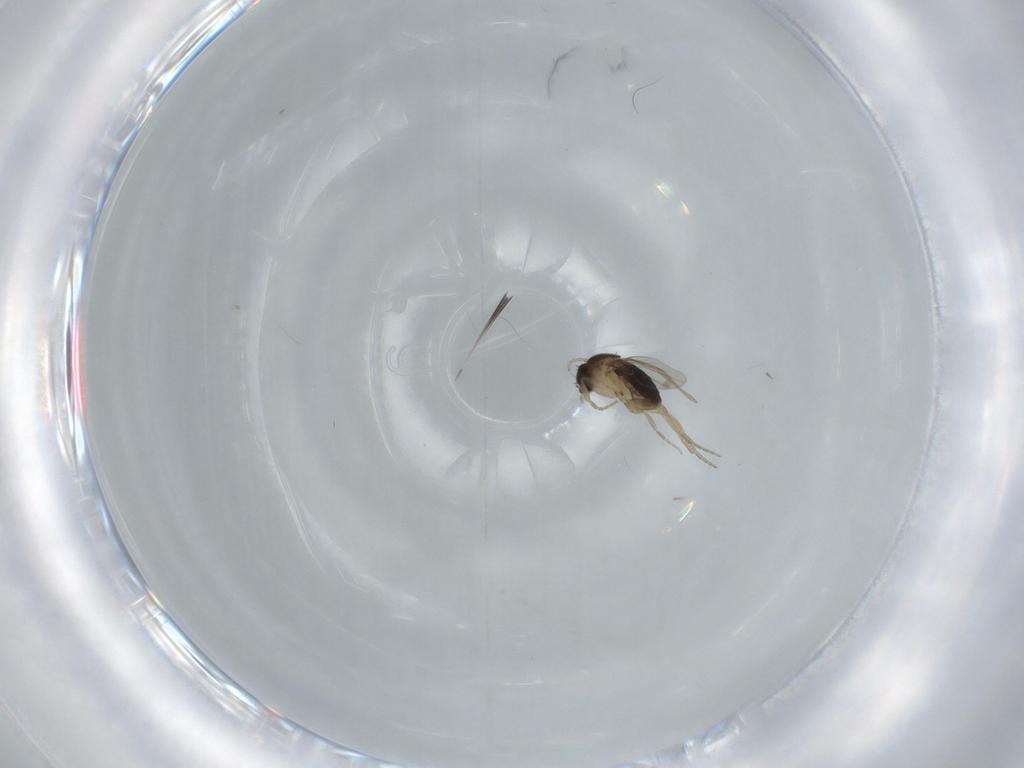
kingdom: Animalia
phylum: Arthropoda
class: Insecta
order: Diptera
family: Phoridae
